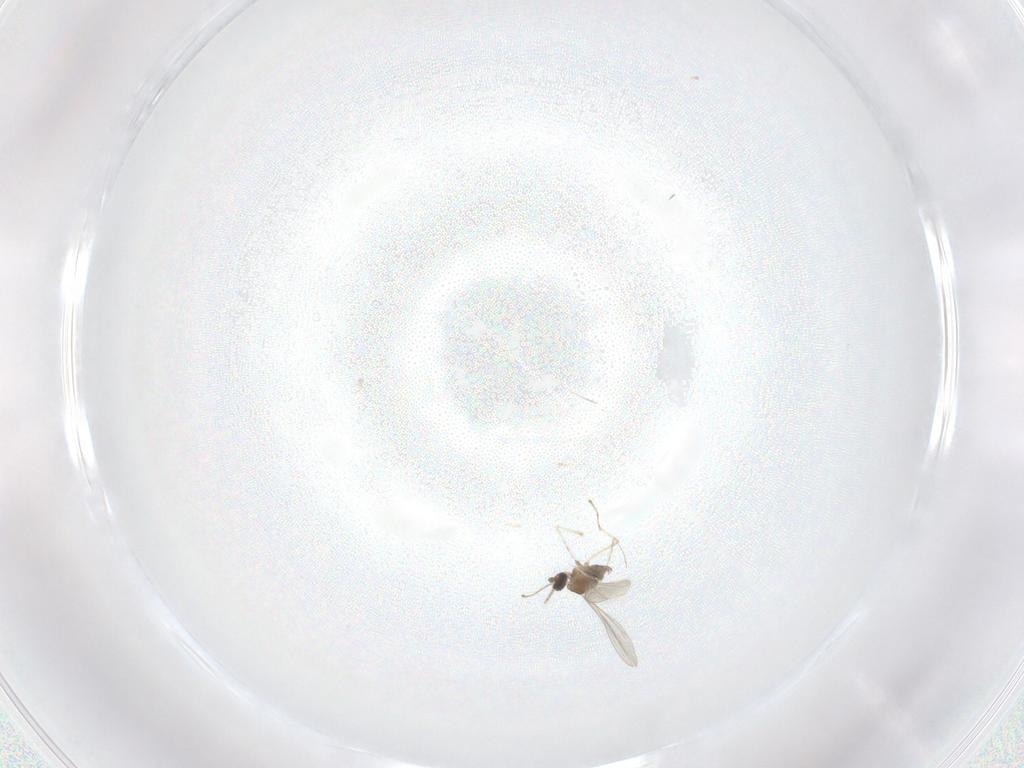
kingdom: Animalia
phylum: Arthropoda
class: Insecta
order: Diptera
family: Cecidomyiidae
